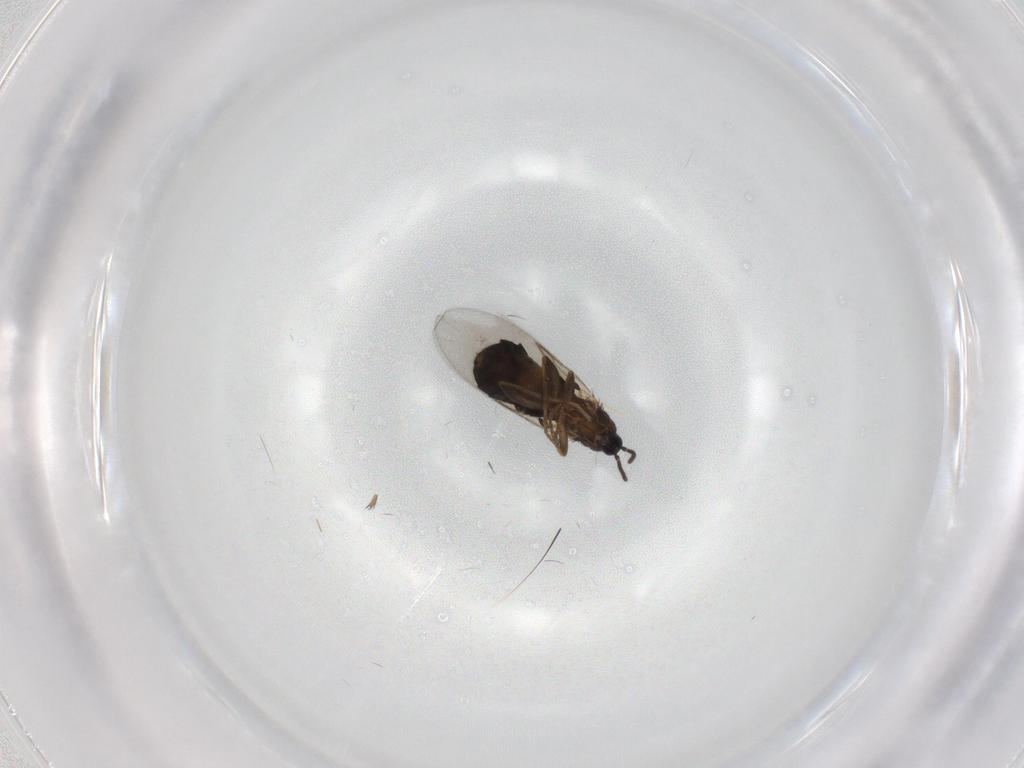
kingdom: Animalia
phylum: Arthropoda
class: Insecta
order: Diptera
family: Scatopsidae
